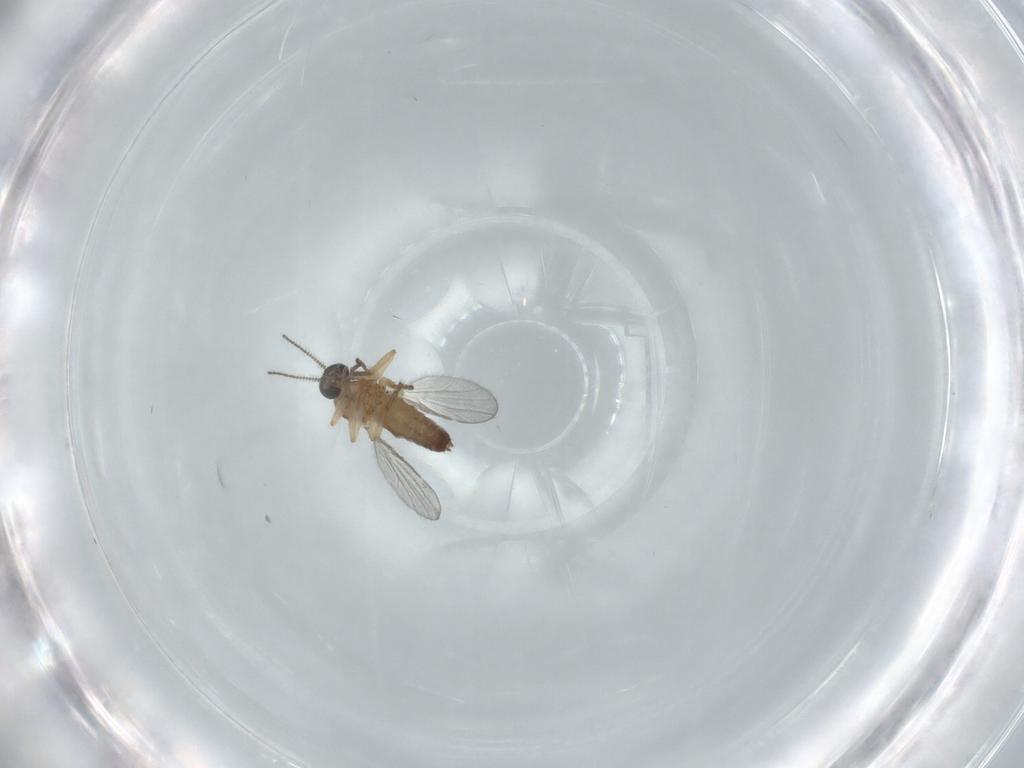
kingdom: Animalia
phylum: Arthropoda
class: Insecta
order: Diptera
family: Ceratopogonidae
